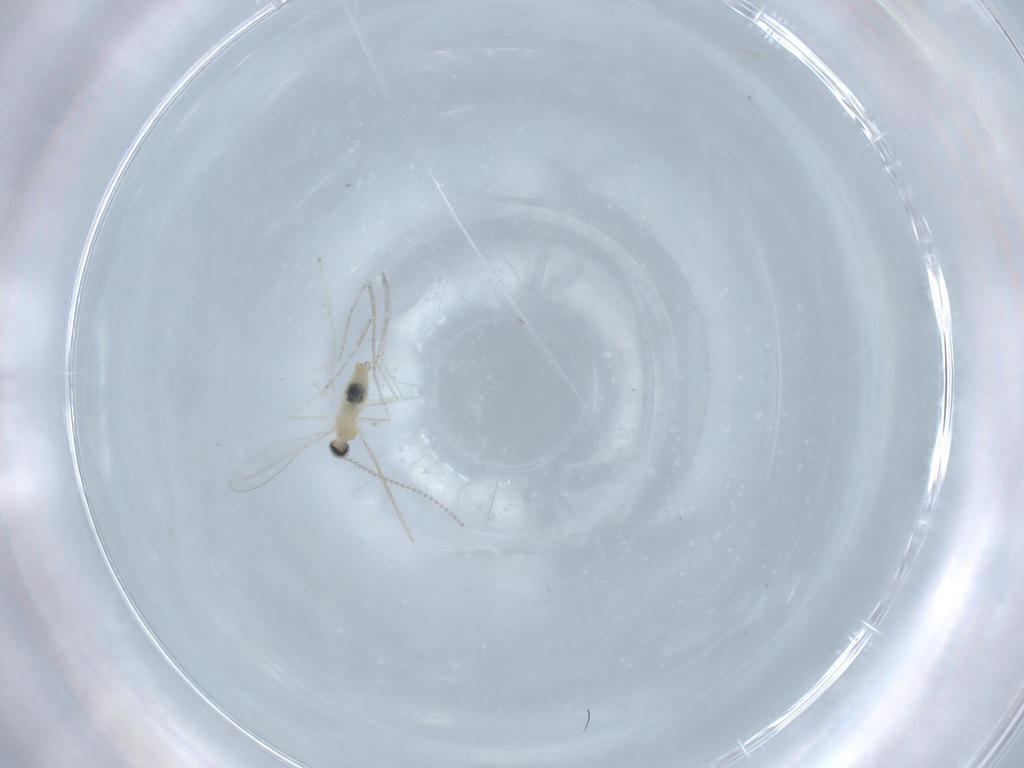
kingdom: Animalia
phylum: Arthropoda
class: Insecta
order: Diptera
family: Cecidomyiidae
